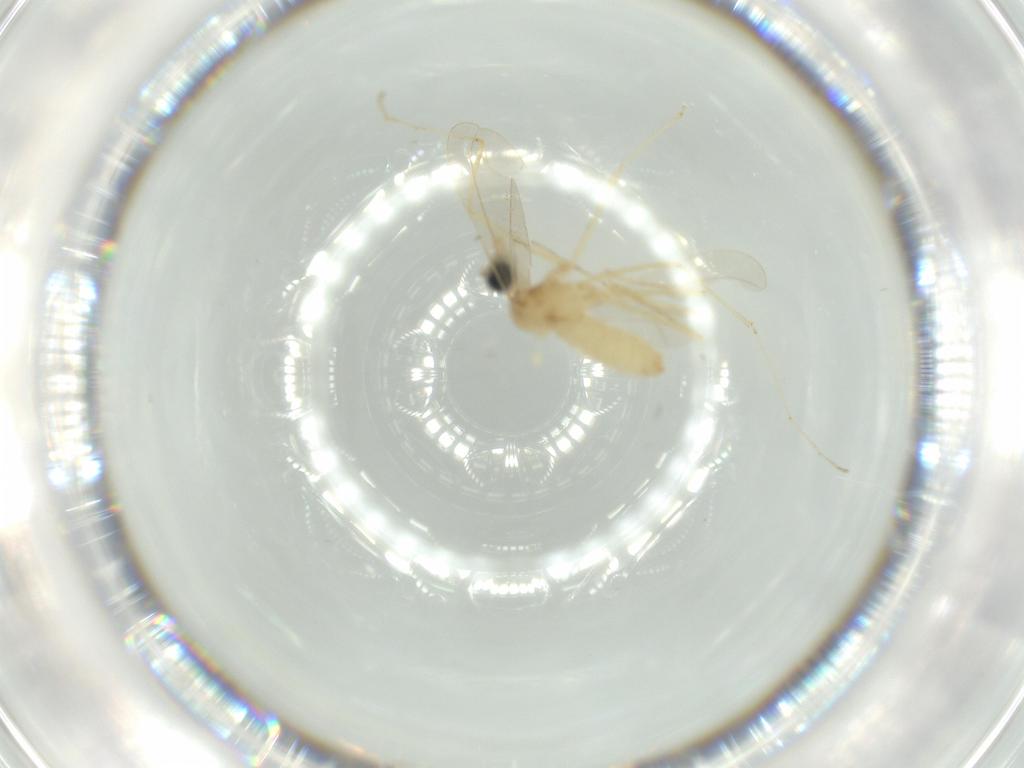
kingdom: Animalia
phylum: Arthropoda
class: Insecta
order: Diptera
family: Cecidomyiidae
